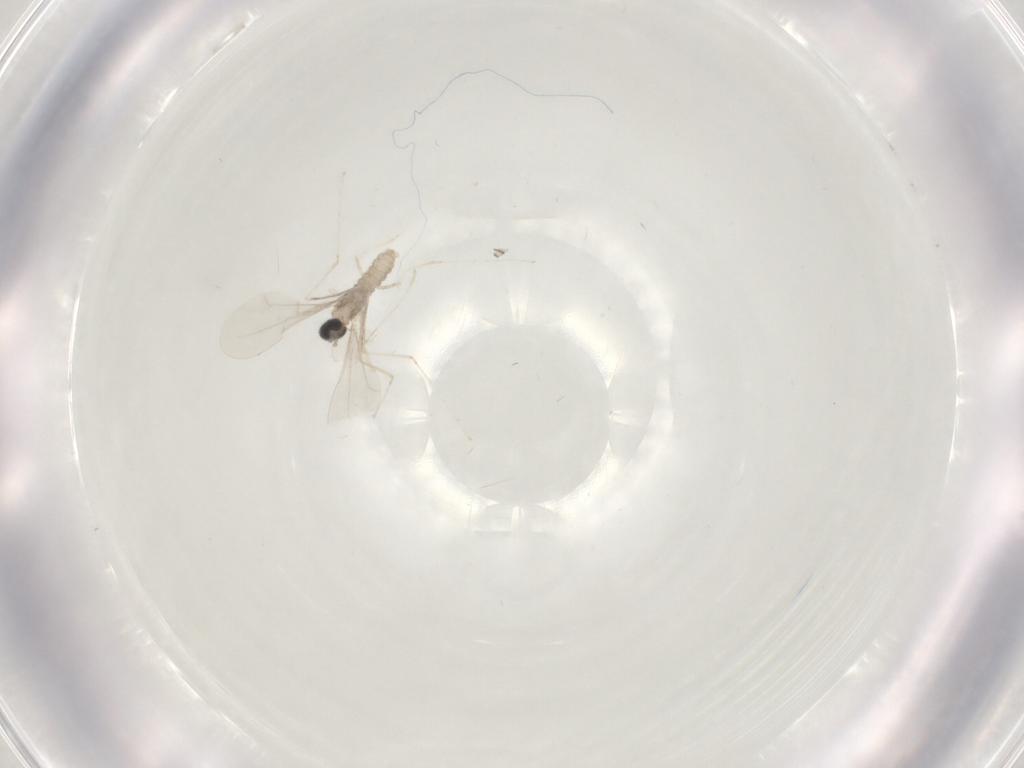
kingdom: Animalia
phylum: Arthropoda
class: Insecta
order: Diptera
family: Cecidomyiidae
